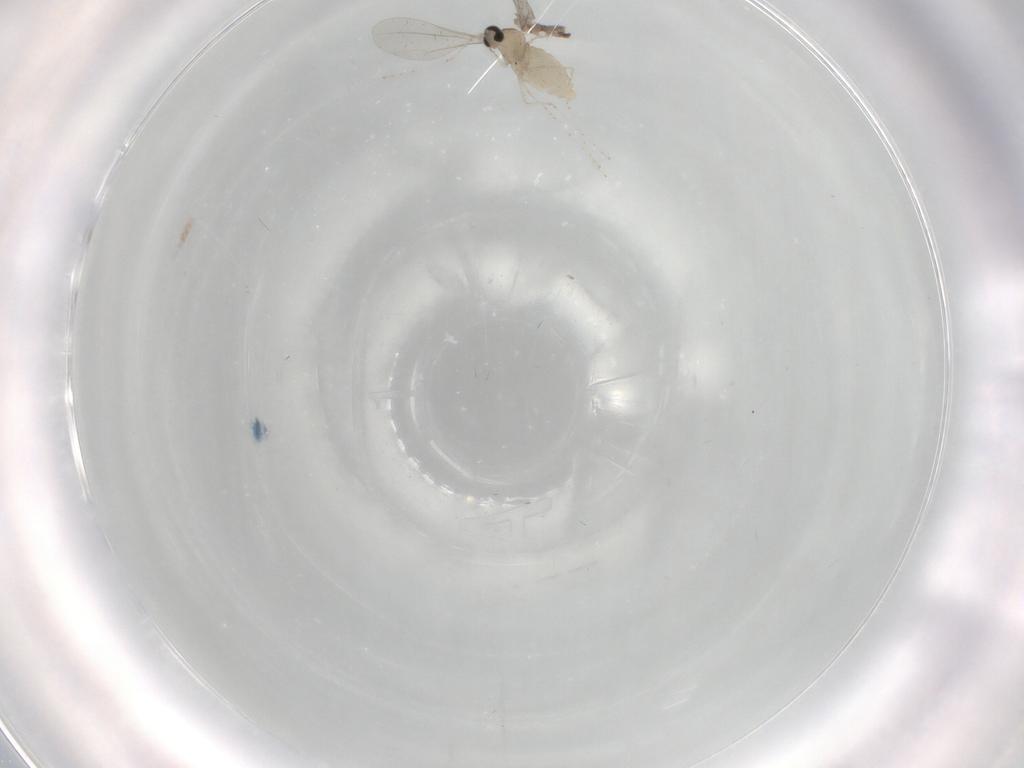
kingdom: Animalia
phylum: Arthropoda
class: Insecta
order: Diptera
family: Cecidomyiidae
